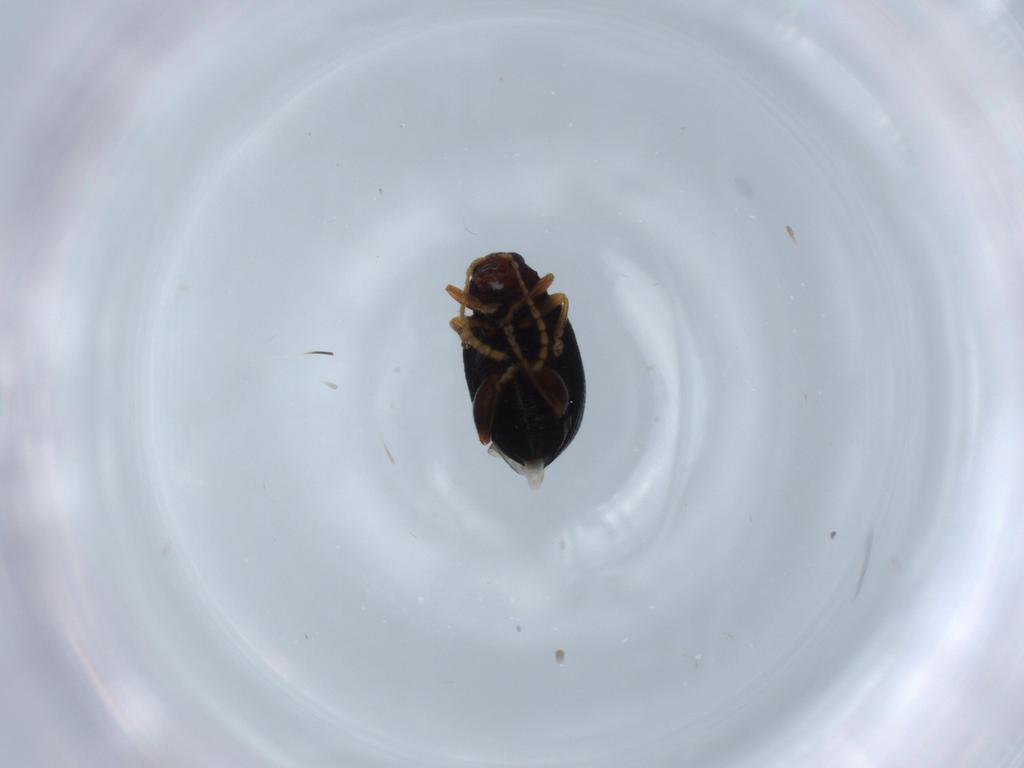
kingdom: Animalia
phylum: Arthropoda
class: Insecta
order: Coleoptera
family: Chrysomelidae
